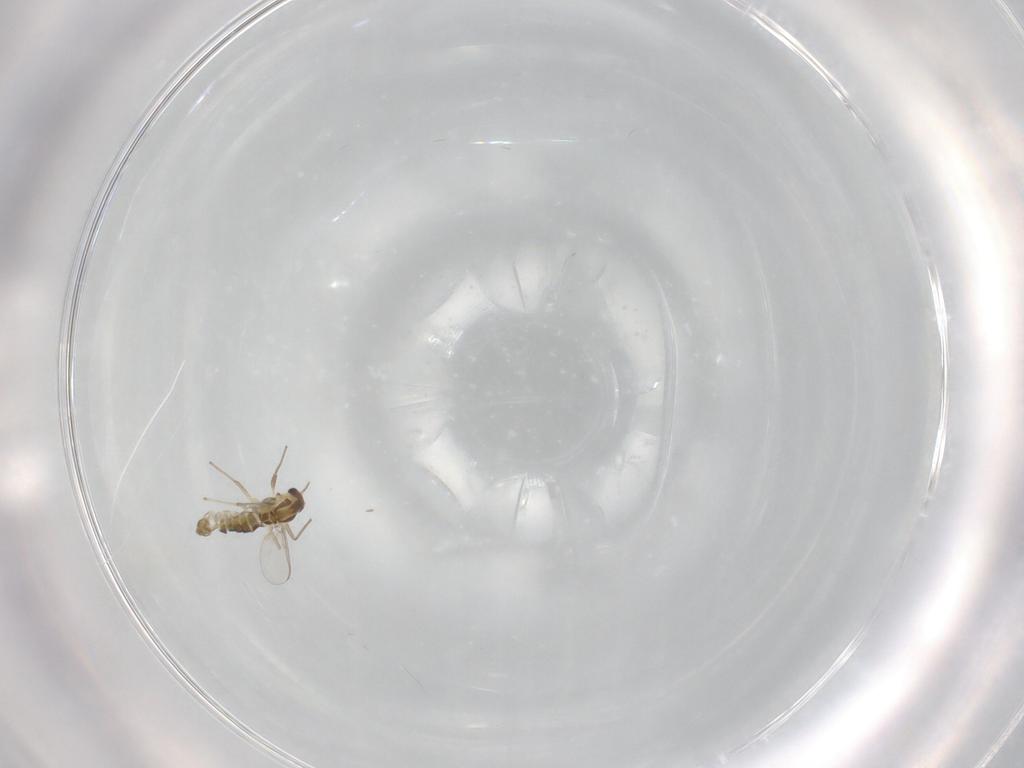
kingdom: Animalia
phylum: Arthropoda
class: Insecta
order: Diptera
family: Chironomidae
